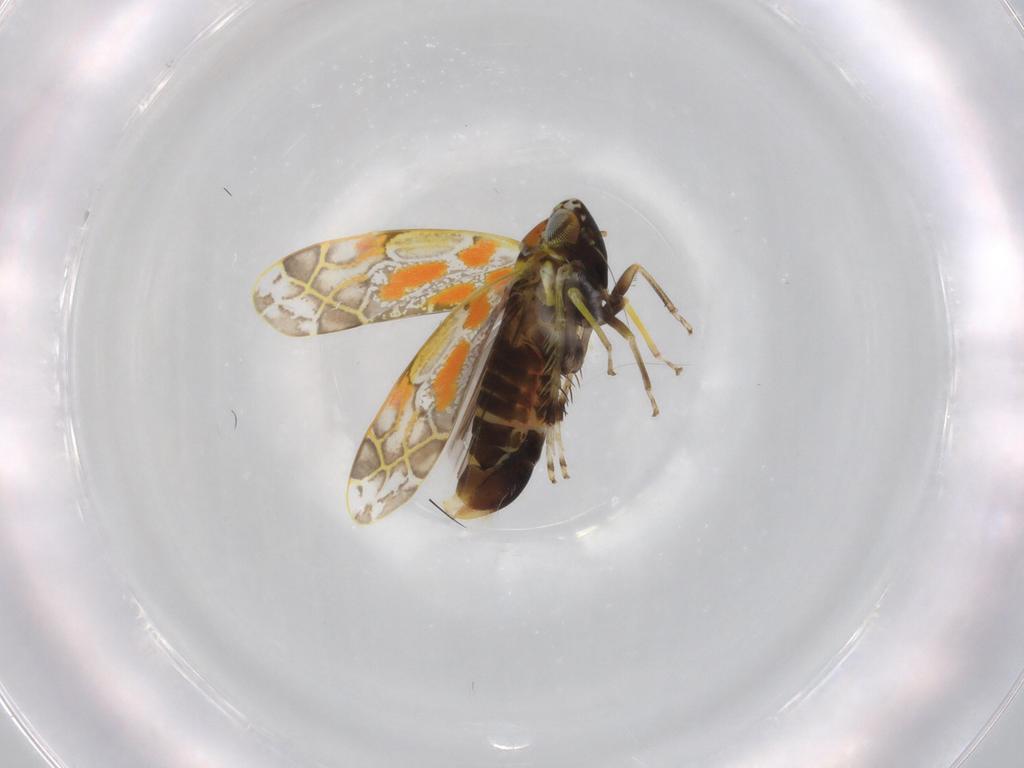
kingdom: Animalia
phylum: Arthropoda
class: Insecta
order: Hemiptera
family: Cicadellidae
